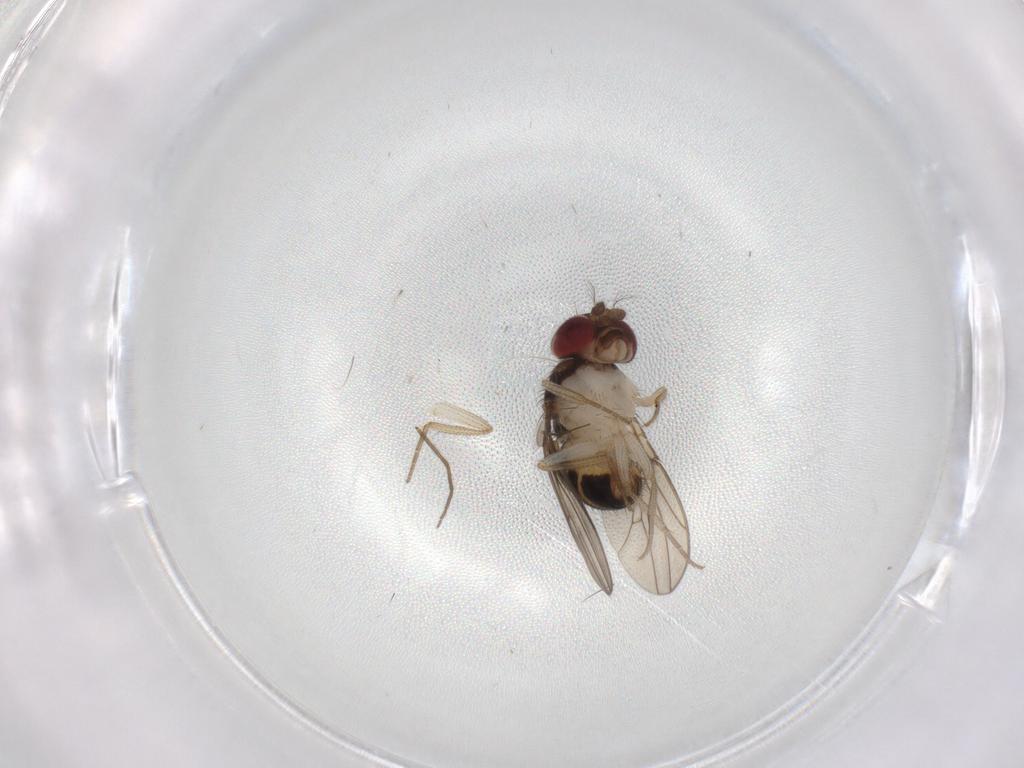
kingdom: Animalia
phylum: Arthropoda
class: Insecta
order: Diptera
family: Drosophilidae
